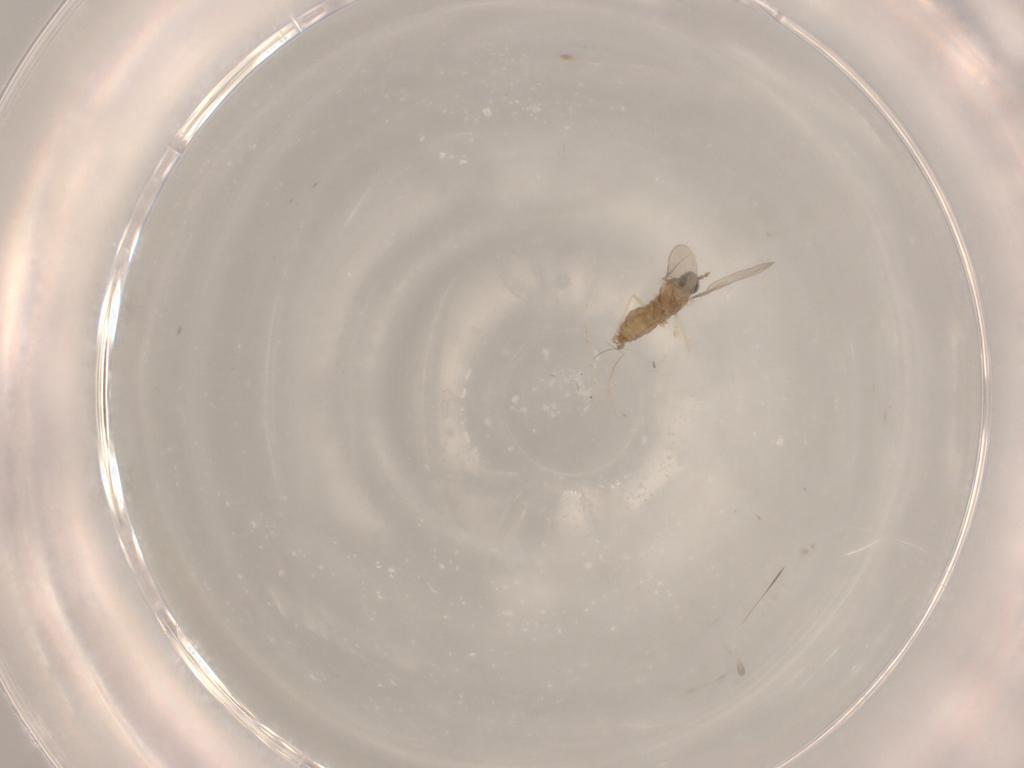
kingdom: Animalia
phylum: Arthropoda
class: Insecta
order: Diptera
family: Sciaridae
